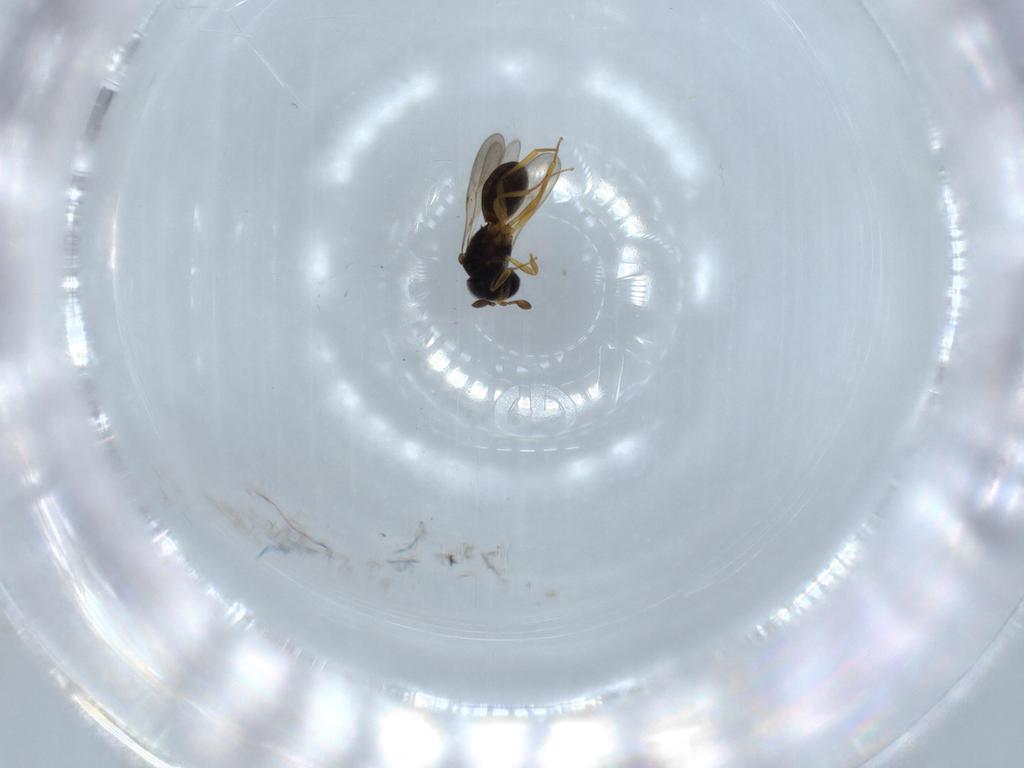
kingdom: Animalia
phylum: Arthropoda
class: Insecta
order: Hymenoptera
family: Scelionidae
